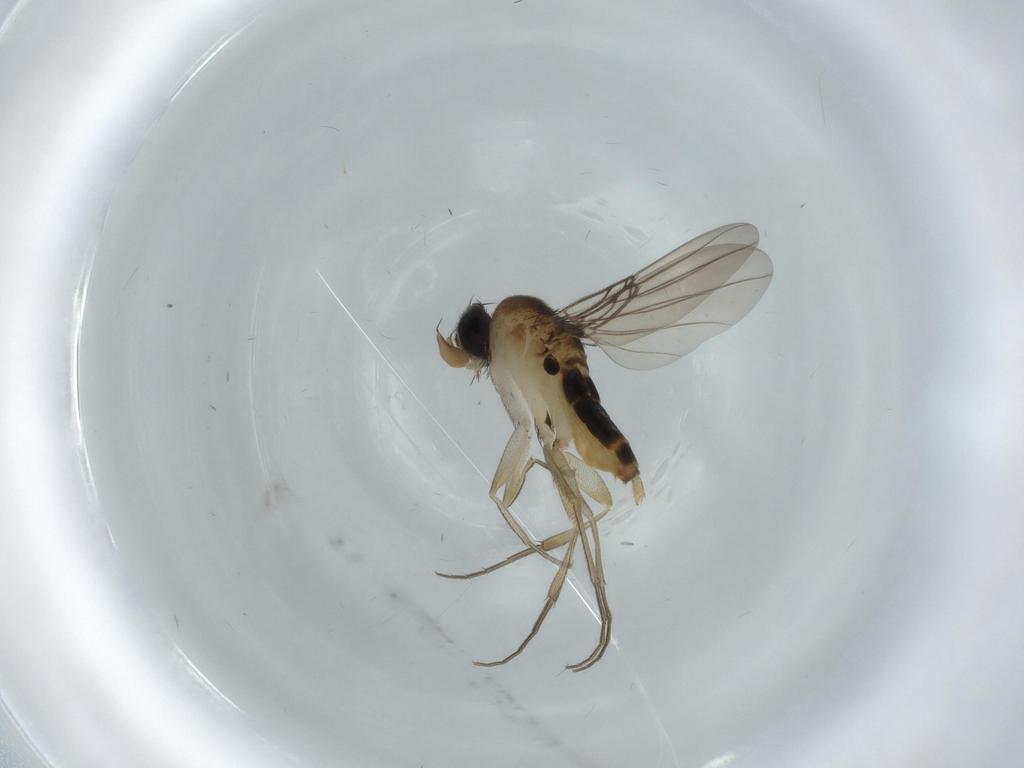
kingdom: Animalia
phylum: Arthropoda
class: Insecta
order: Diptera
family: Phoridae
